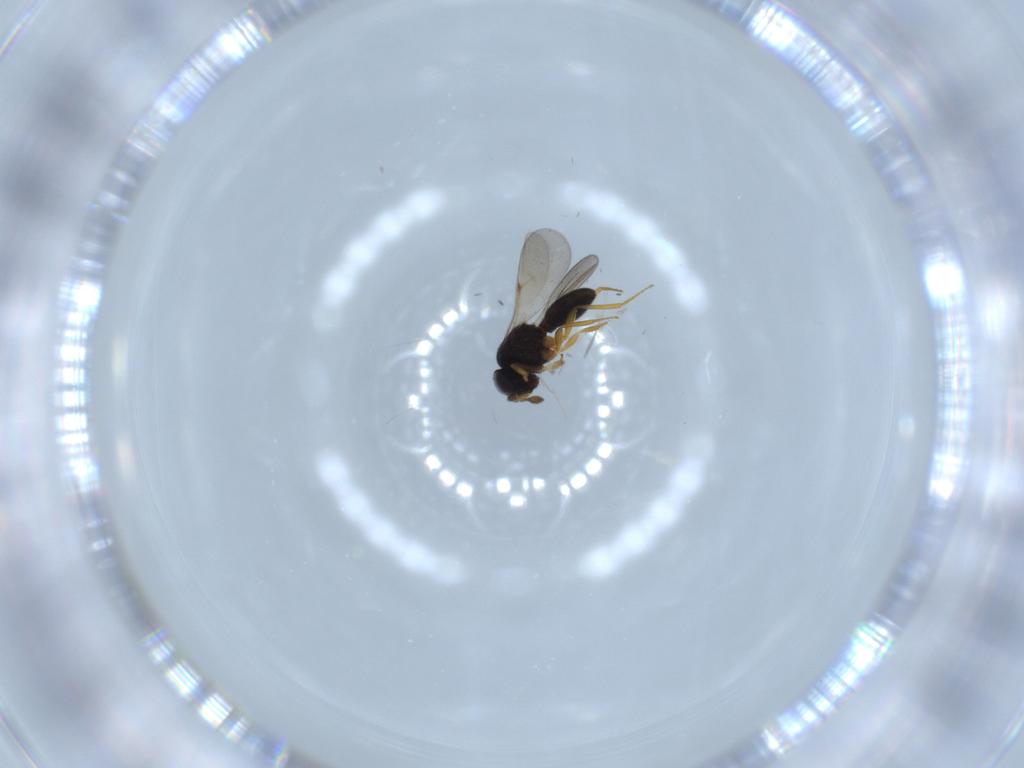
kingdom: Animalia
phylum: Arthropoda
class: Insecta
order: Hymenoptera
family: Scelionidae
